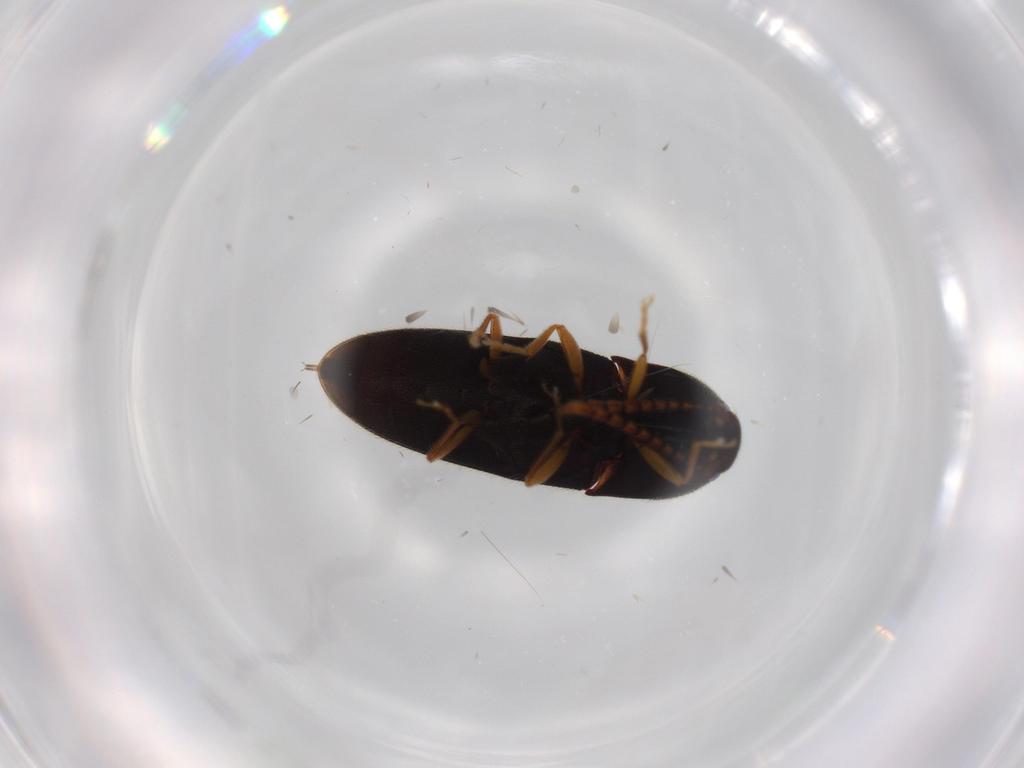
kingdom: Animalia
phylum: Arthropoda
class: Insecta
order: Coleoptera
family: Elateridae
